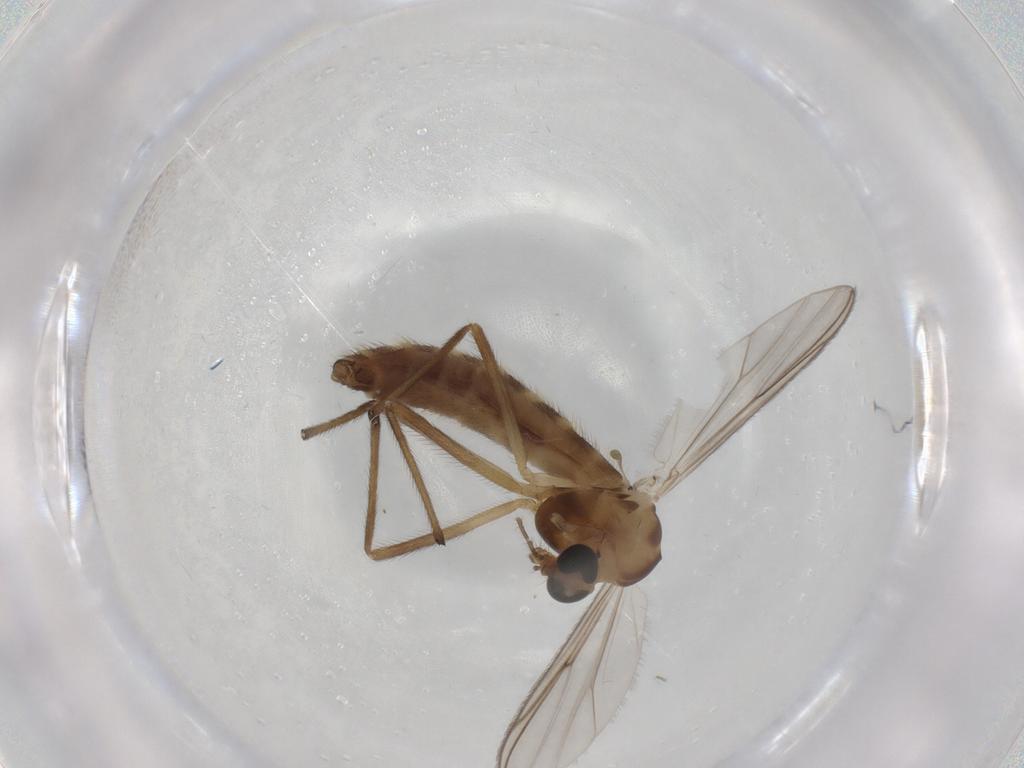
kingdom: Animalia
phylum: Arthropoda
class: Insecta
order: Diptera
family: Chironomidae
